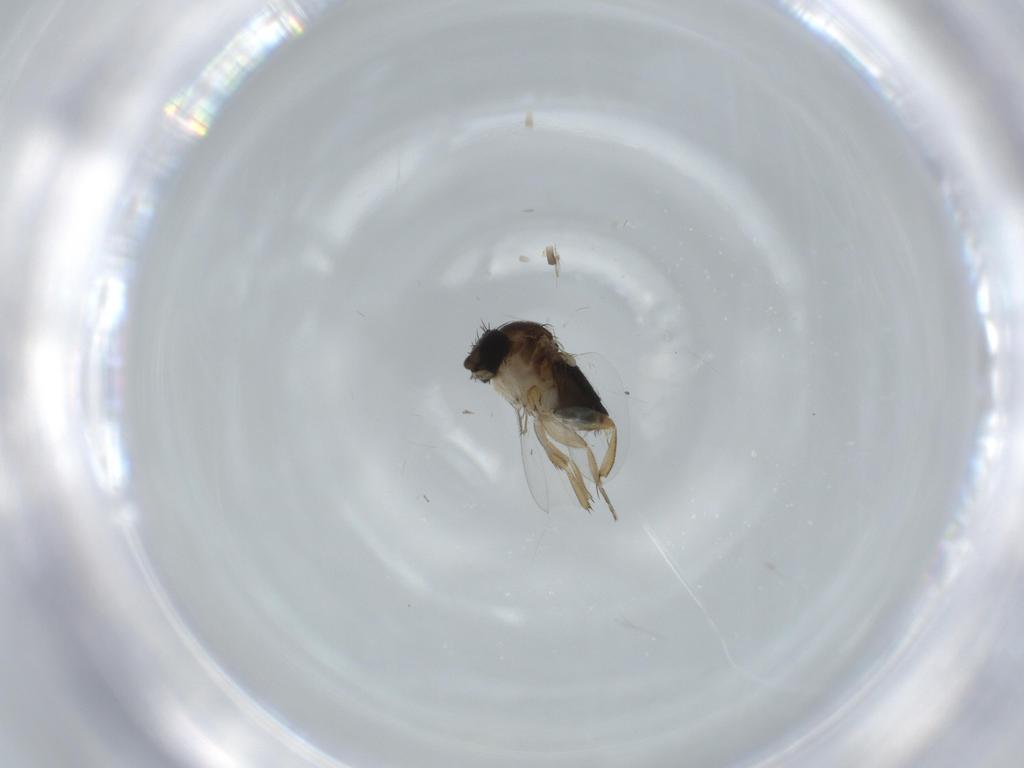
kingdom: Animalia
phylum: Arthropoda
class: Insecta
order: Diptera
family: Phoridae
